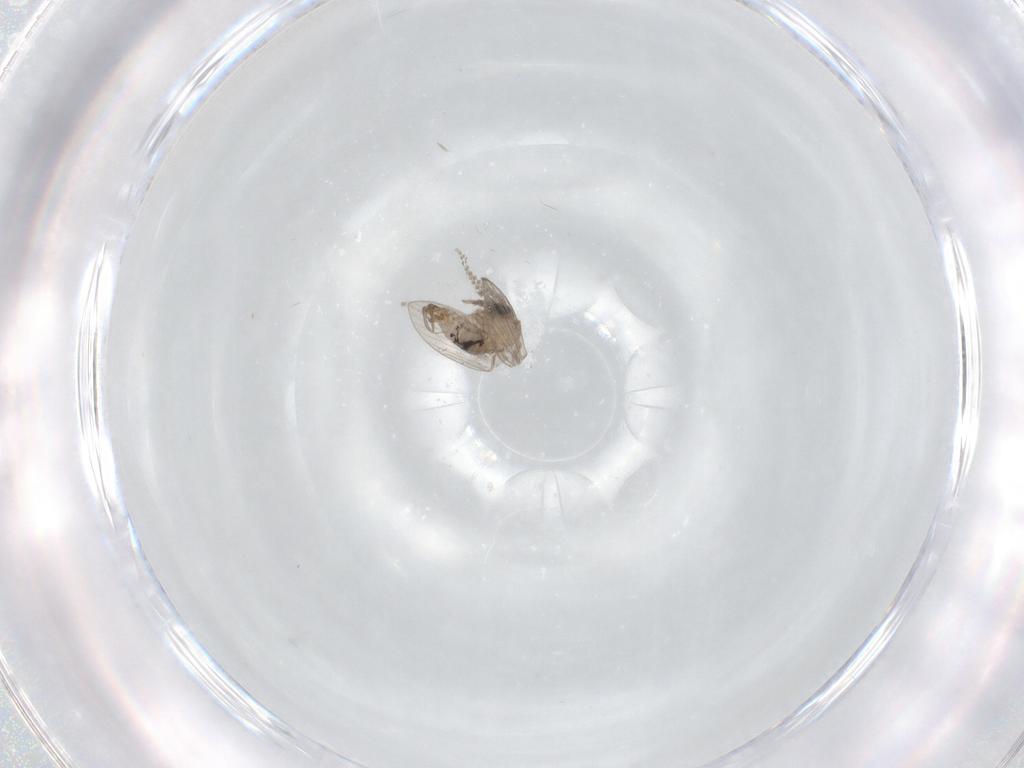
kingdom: Animalia
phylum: Arthropoda
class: Insecta
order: Diptera
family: Psychodidae
